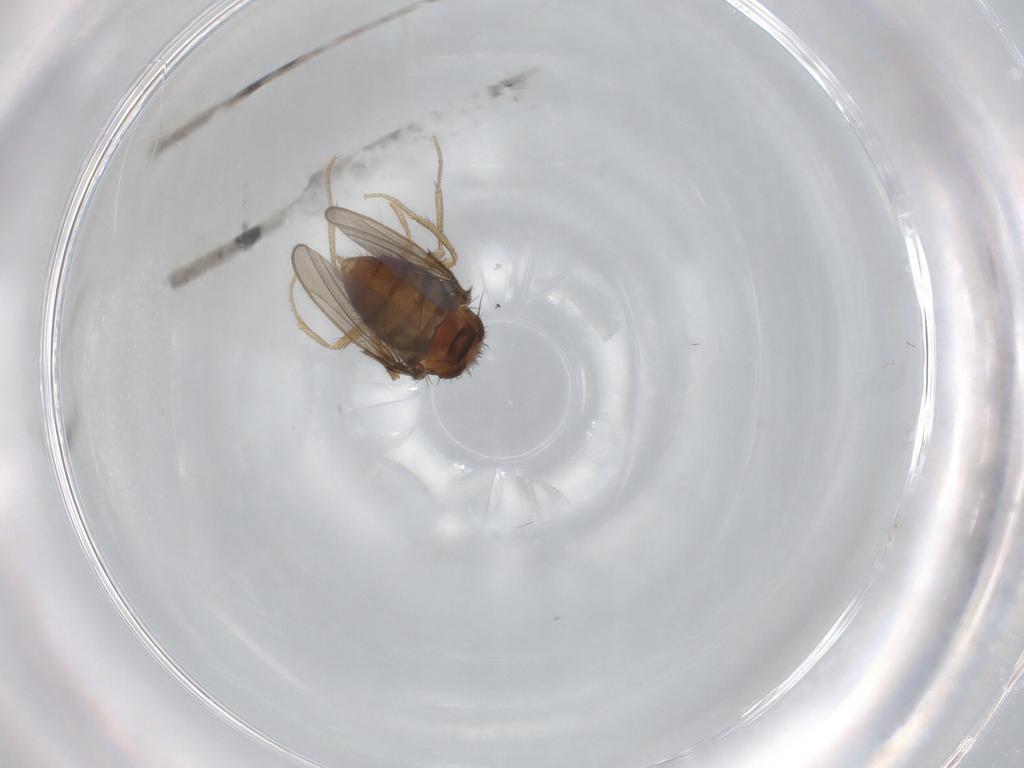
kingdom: Animalia
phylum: Arthropoda
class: Insecta
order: Diptera
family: Drosophilidae
